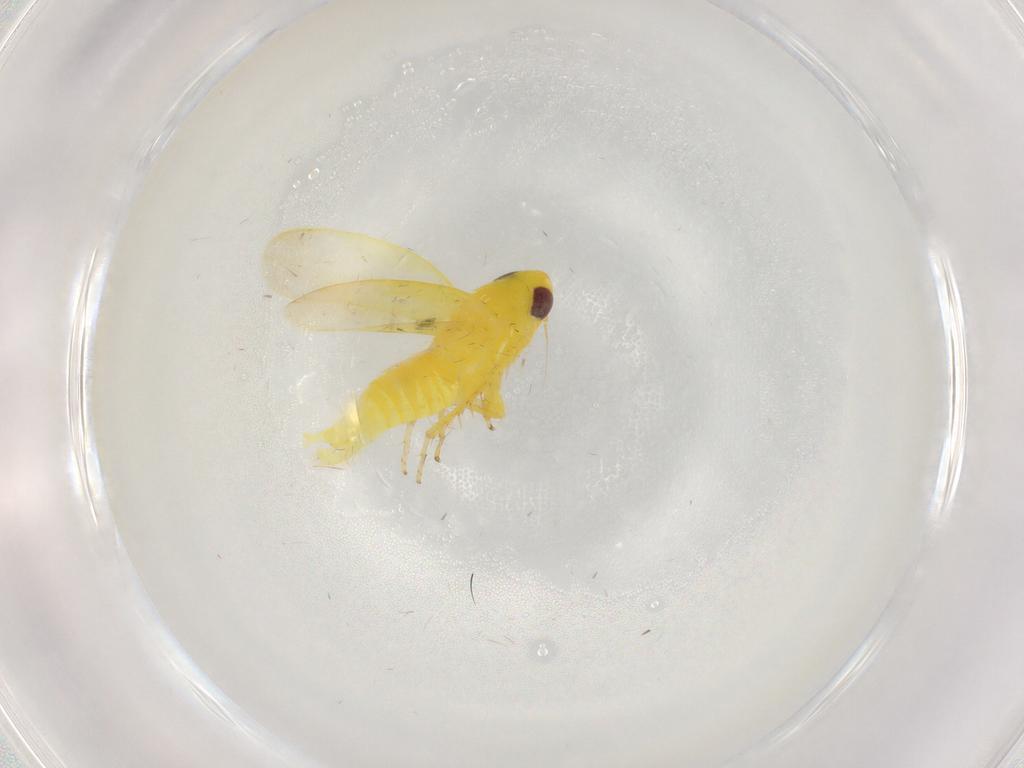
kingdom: Animalia
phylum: Arthropoda
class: Insecta
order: Hemiptera
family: Cicadellidae
